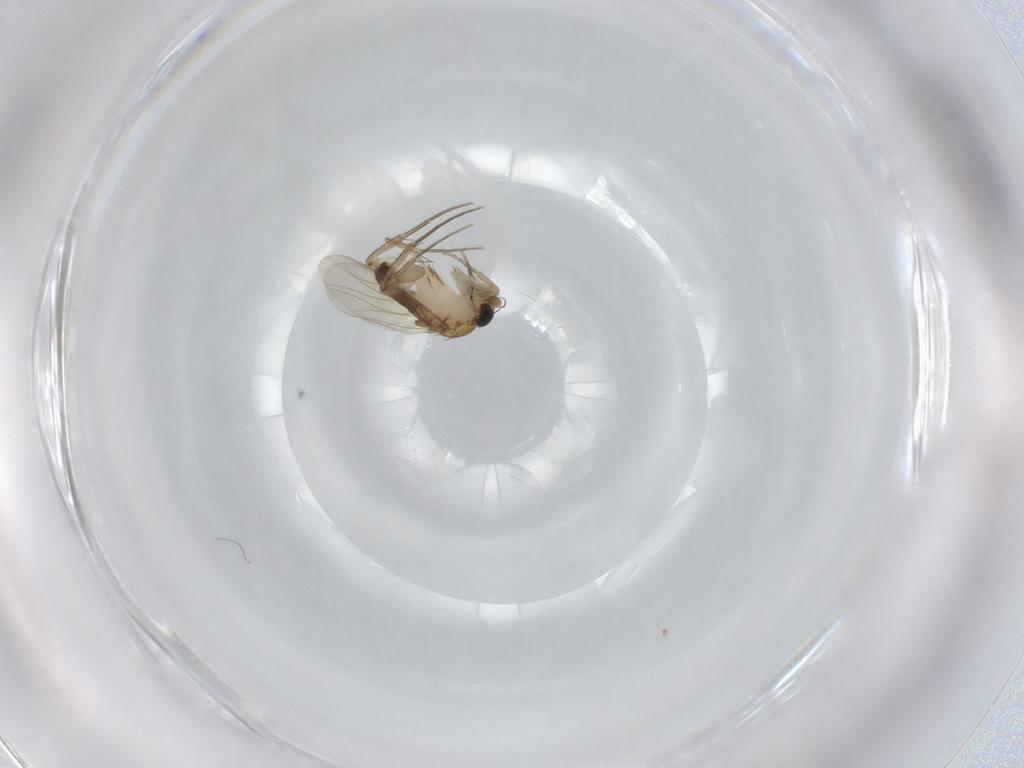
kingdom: Animalia
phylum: Arthropoda
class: Insecta
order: Diptera
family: Phoridae
